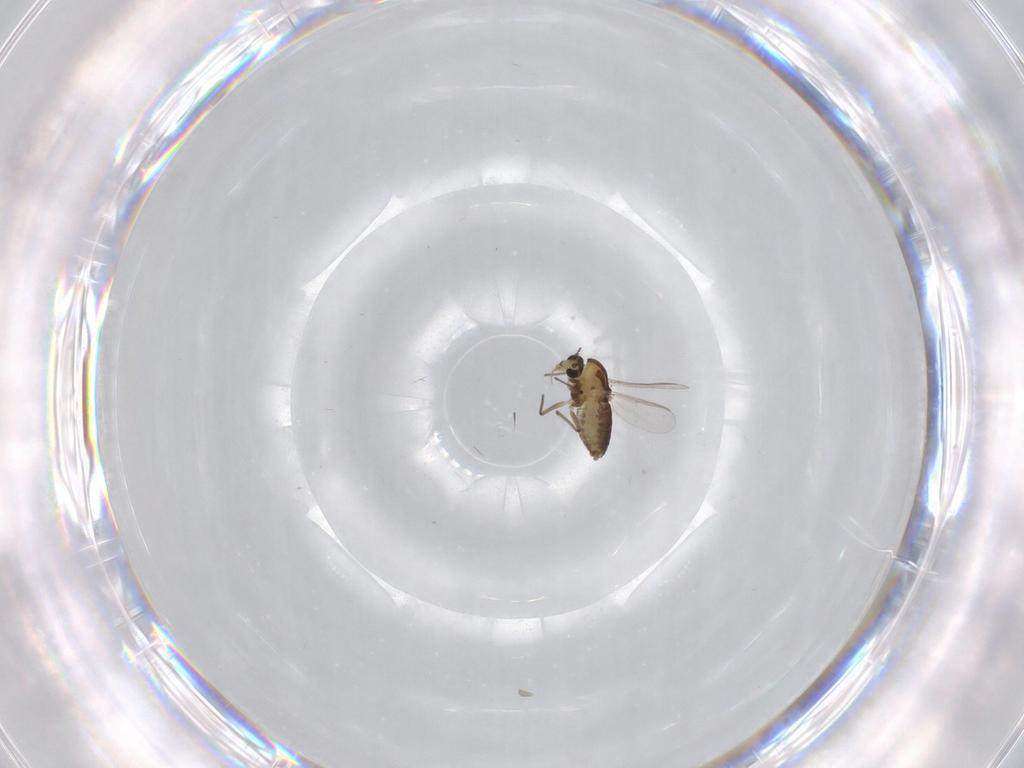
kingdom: Animalia
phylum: Arthropoda
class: Insecta
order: Diptera
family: Chironomidae
